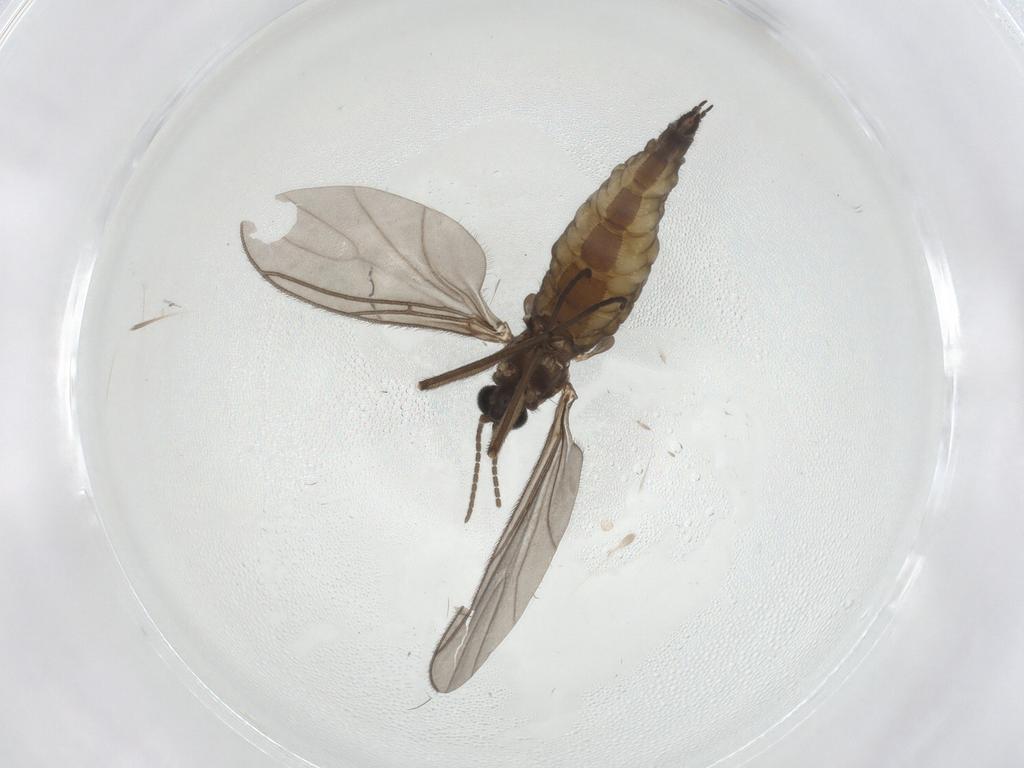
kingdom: Animalia
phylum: Arthropoda
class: Insecta
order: Diptera
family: Sciaridae
